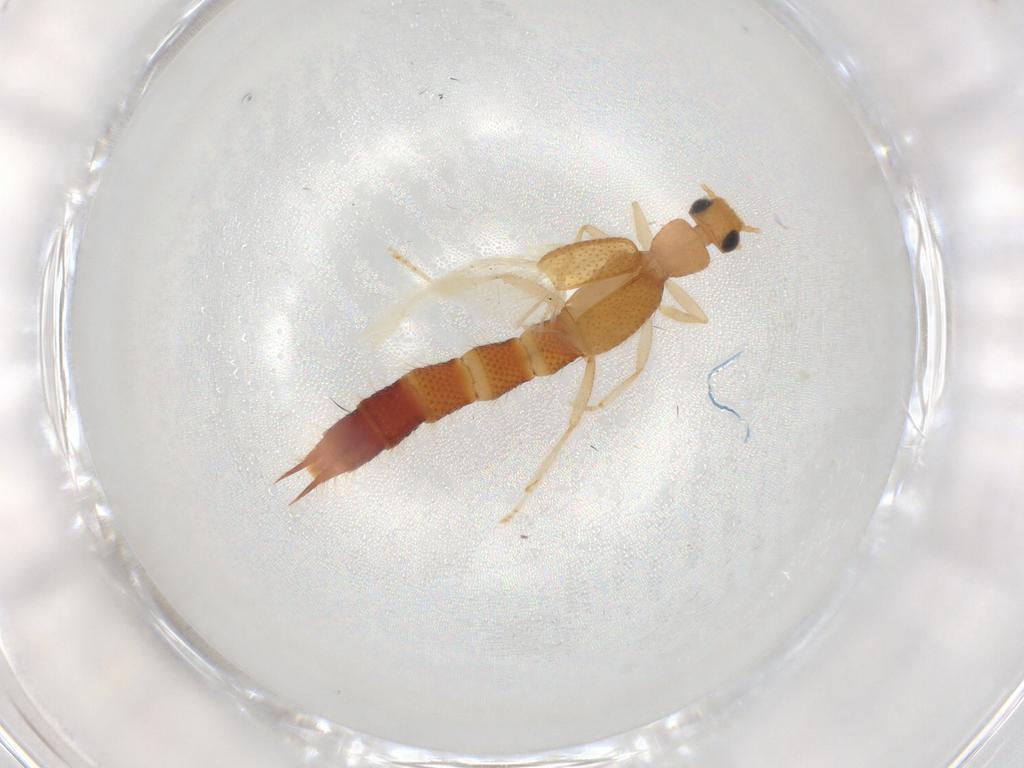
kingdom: Animalia
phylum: Arthropoda
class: Insecta
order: Coleoptera
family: Staphylinidae
